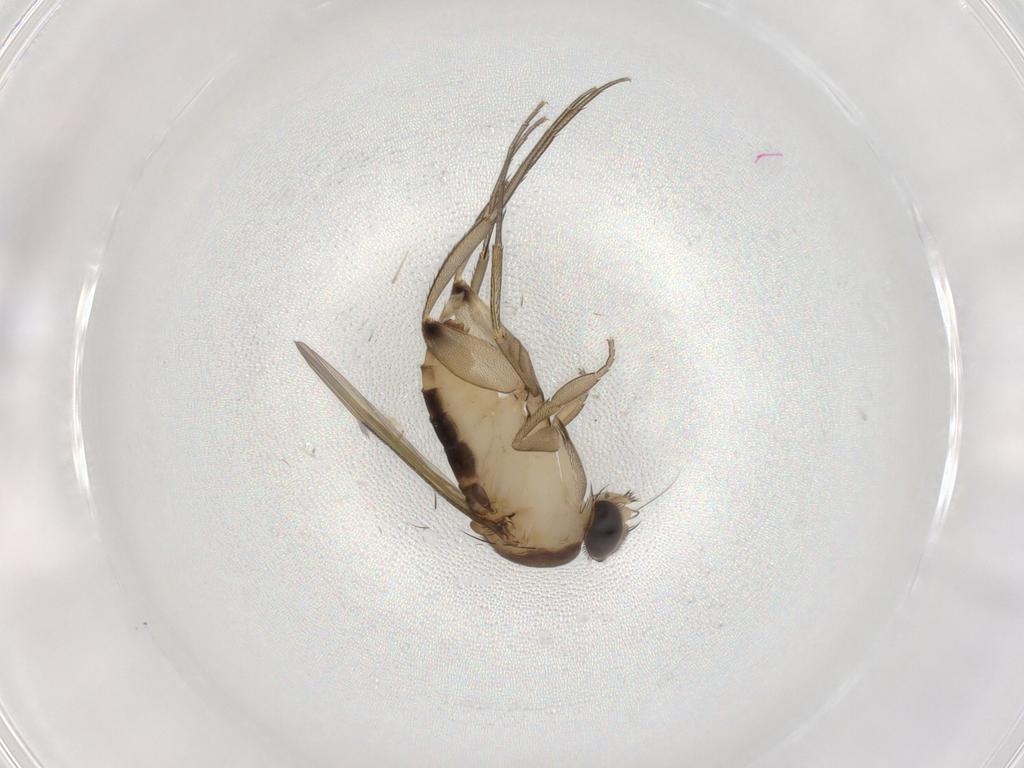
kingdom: Animalia
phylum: Arthropoda
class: Insecta
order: Diptera
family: Phoridae
